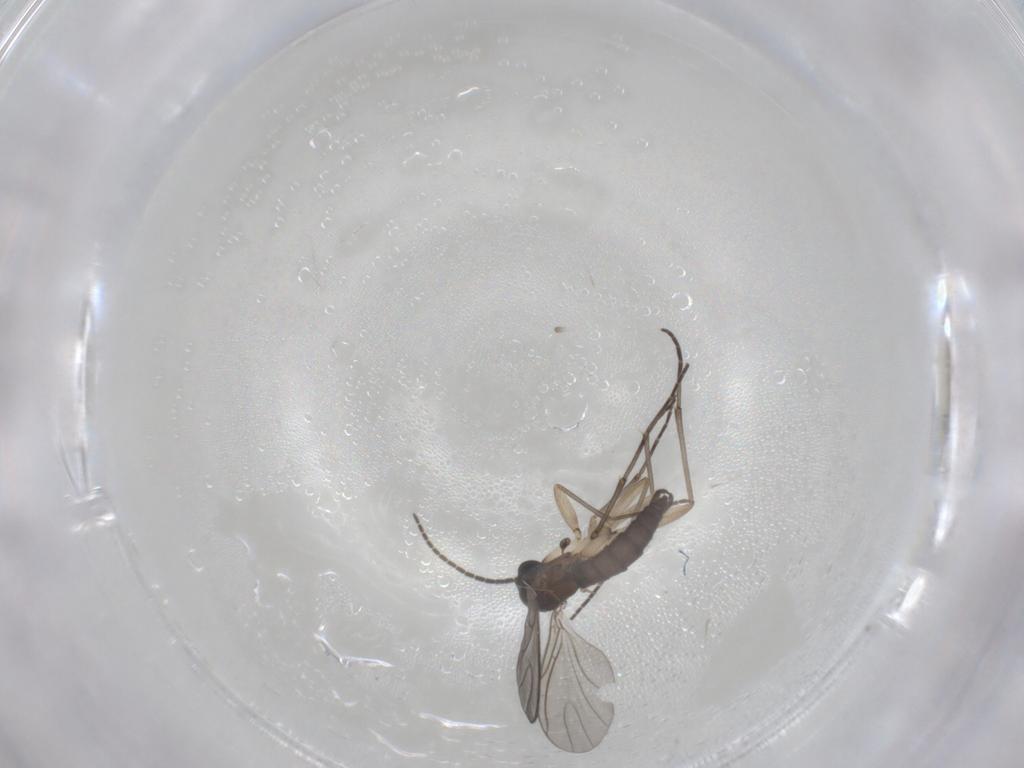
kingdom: Animalia
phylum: Arthropoda
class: Insecta
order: Diptera
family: Sciaridae
